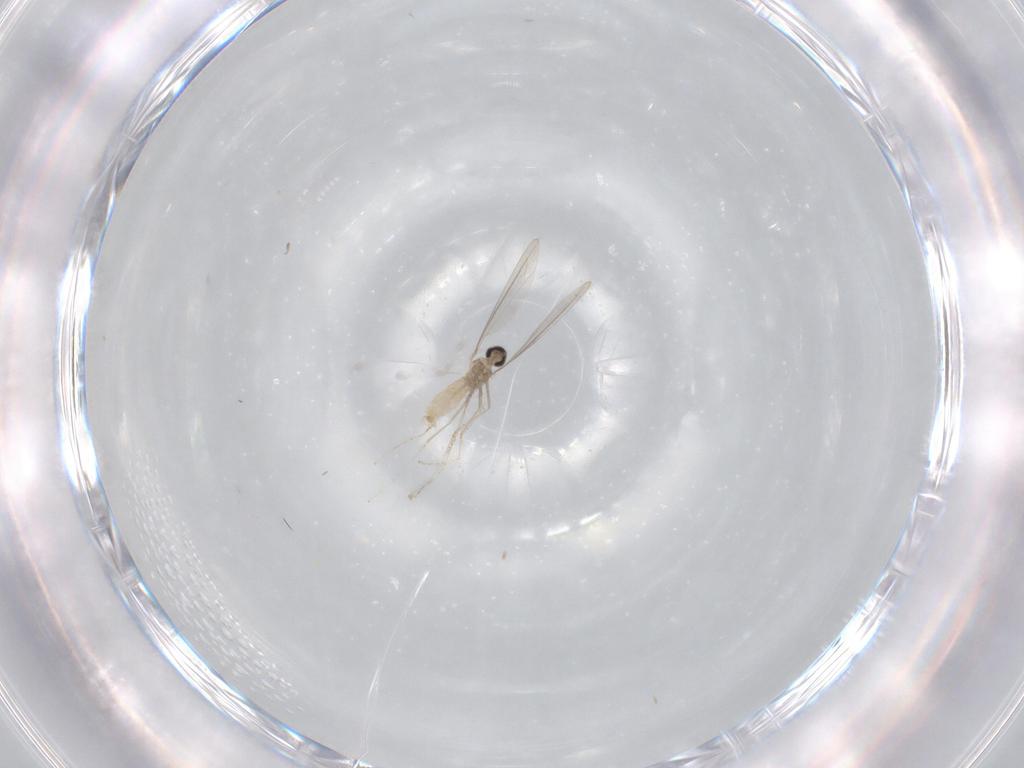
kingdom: Animalia
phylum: Arthropoda
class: Insecta
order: Diptera
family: Cecidomyiidae
